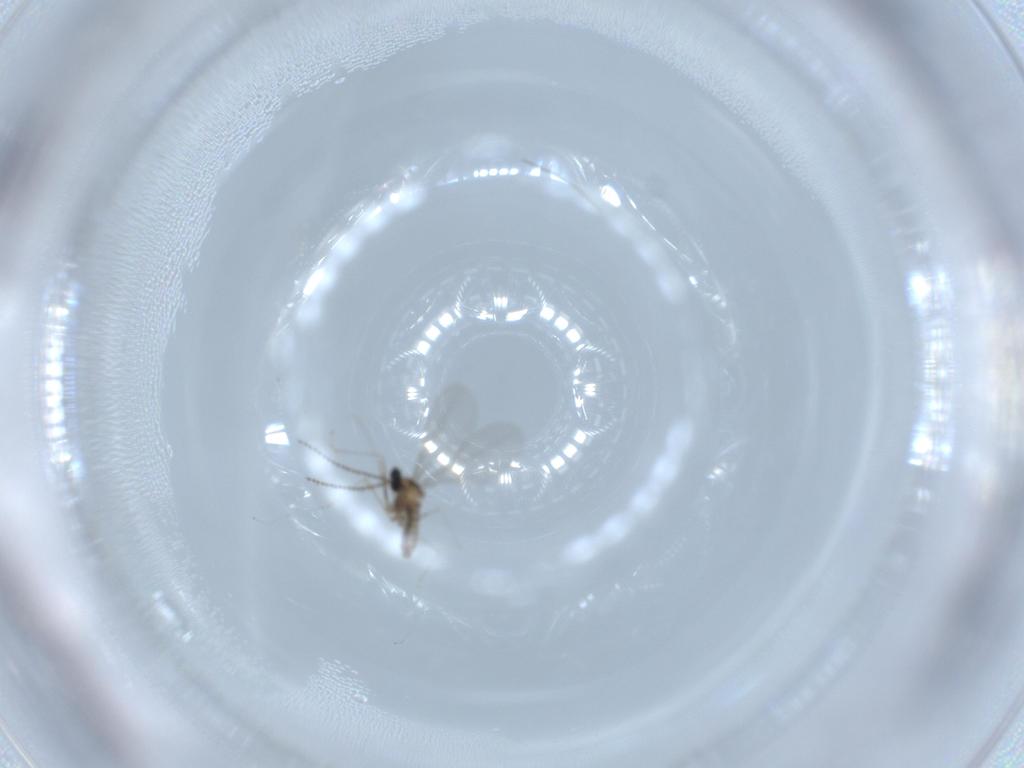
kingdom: Animalia
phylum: Arthropoda
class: Insecta
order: Diptera
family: Cecidomyiidae
